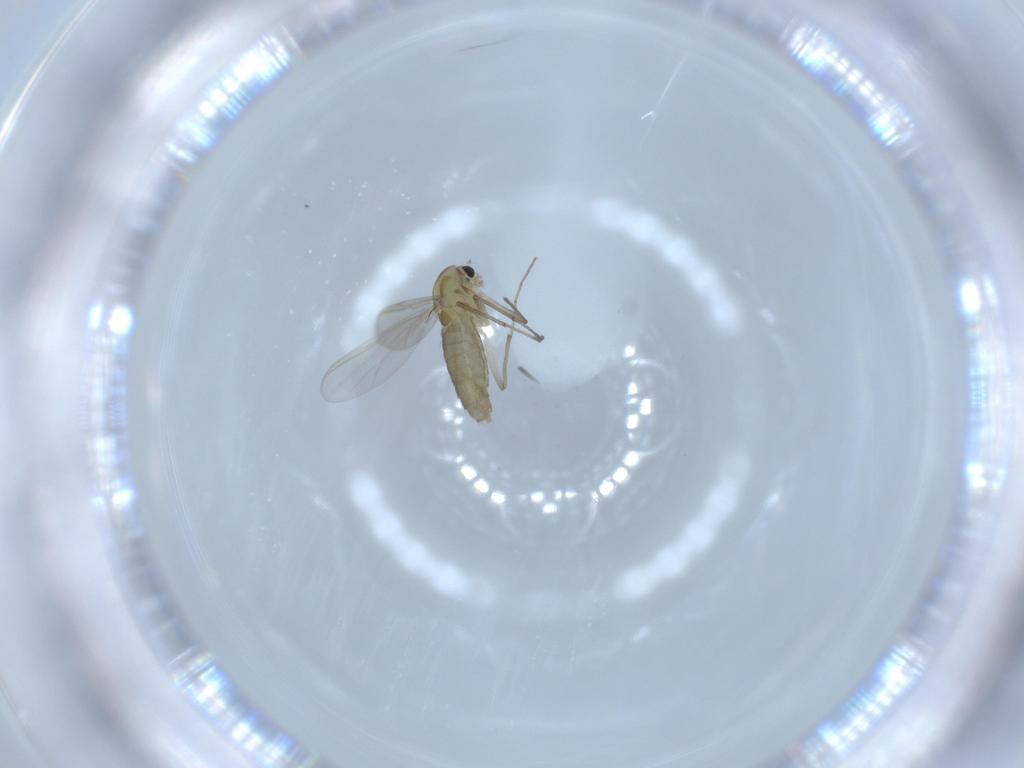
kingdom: Animalia
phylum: Arthropoda
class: Insecta
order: Diptera
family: Chironomidae
